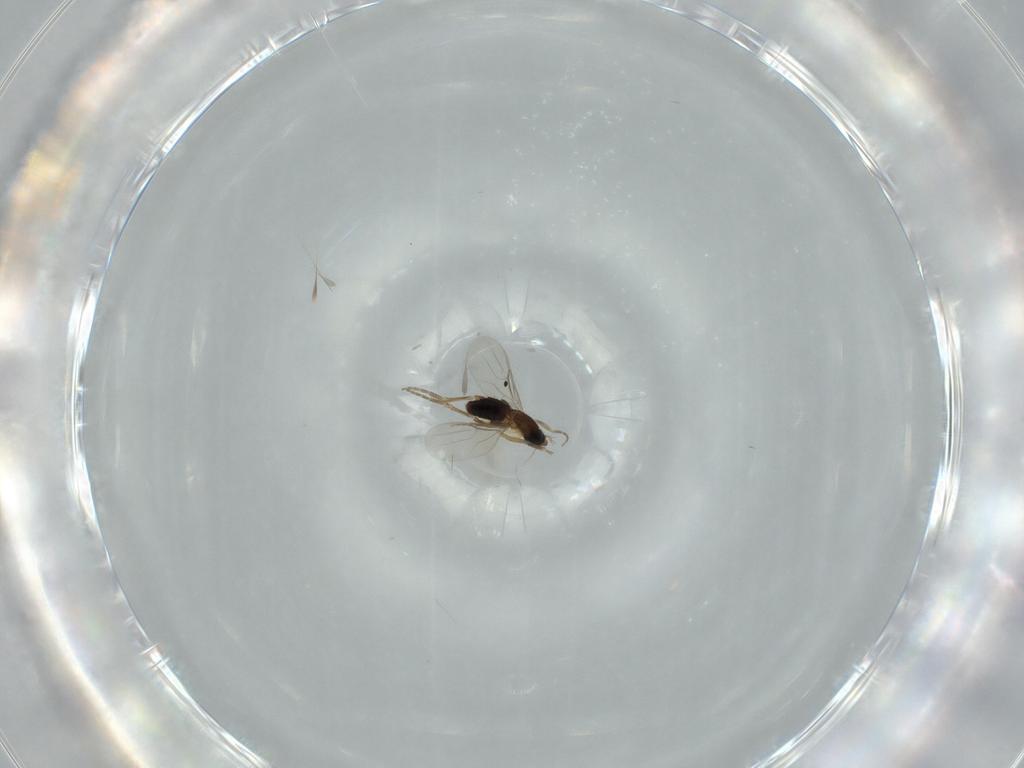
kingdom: Animalia
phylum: Arthropoda
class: Insecta
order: Diptera
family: Phoridae
